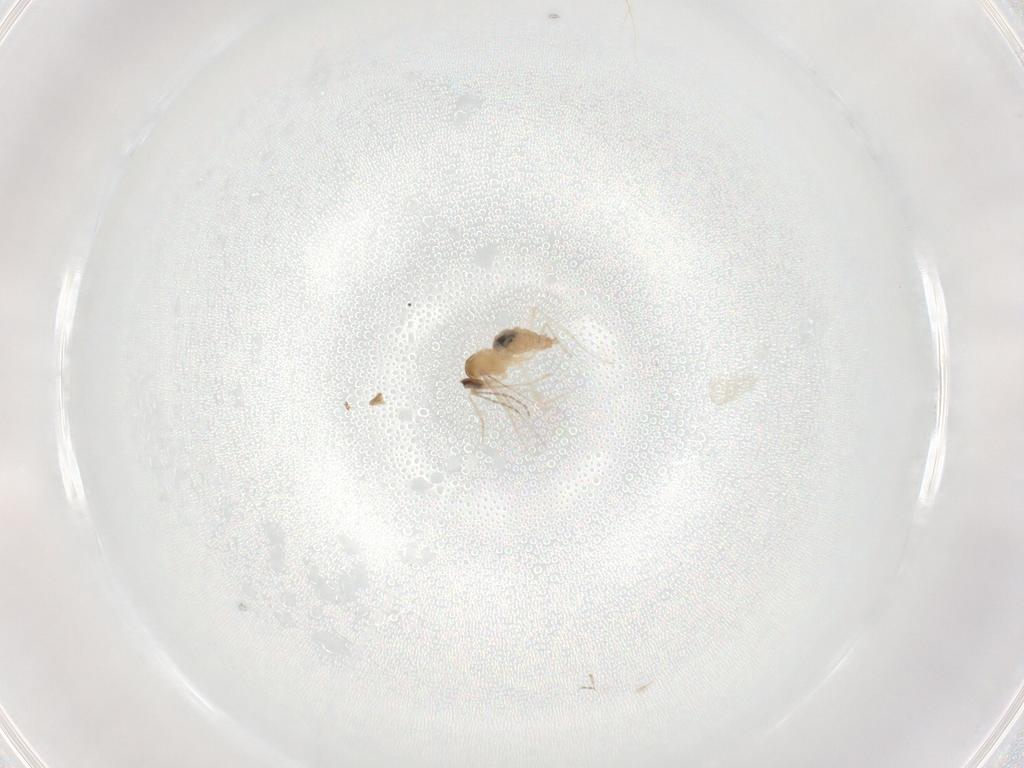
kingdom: Animalia
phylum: Arthropoda
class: Insecta
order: Diptera
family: Cecidomyiidae
